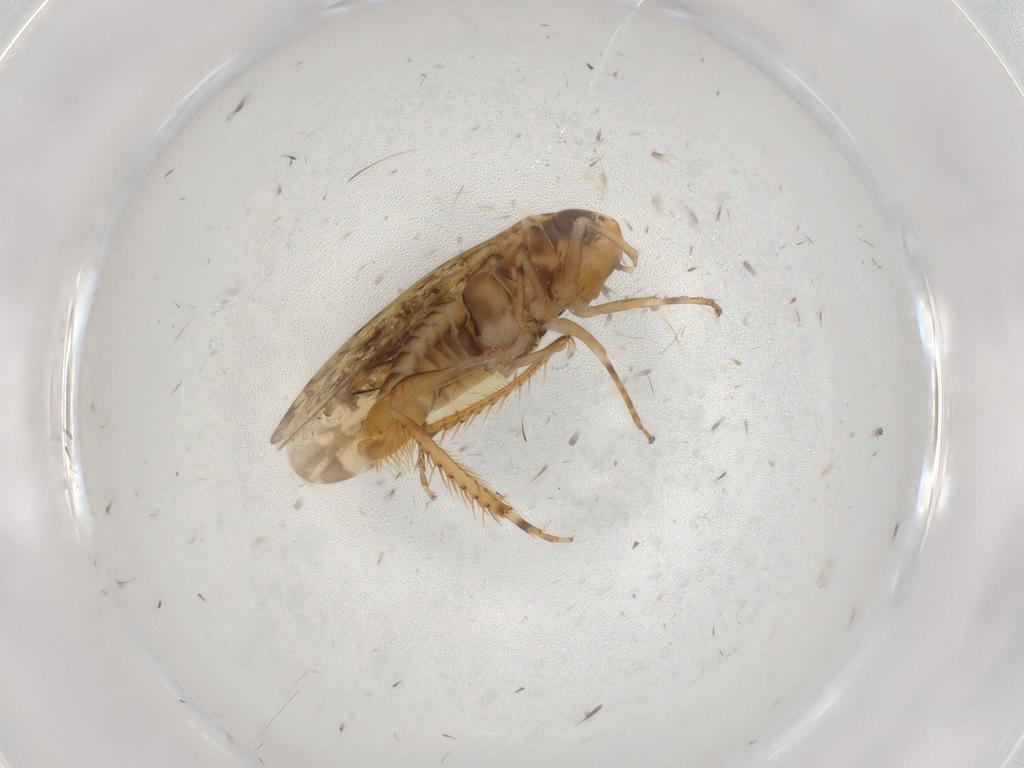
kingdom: Animalia
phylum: Arthropoda
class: Insecta
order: Hemiptera
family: Cicadellidae
